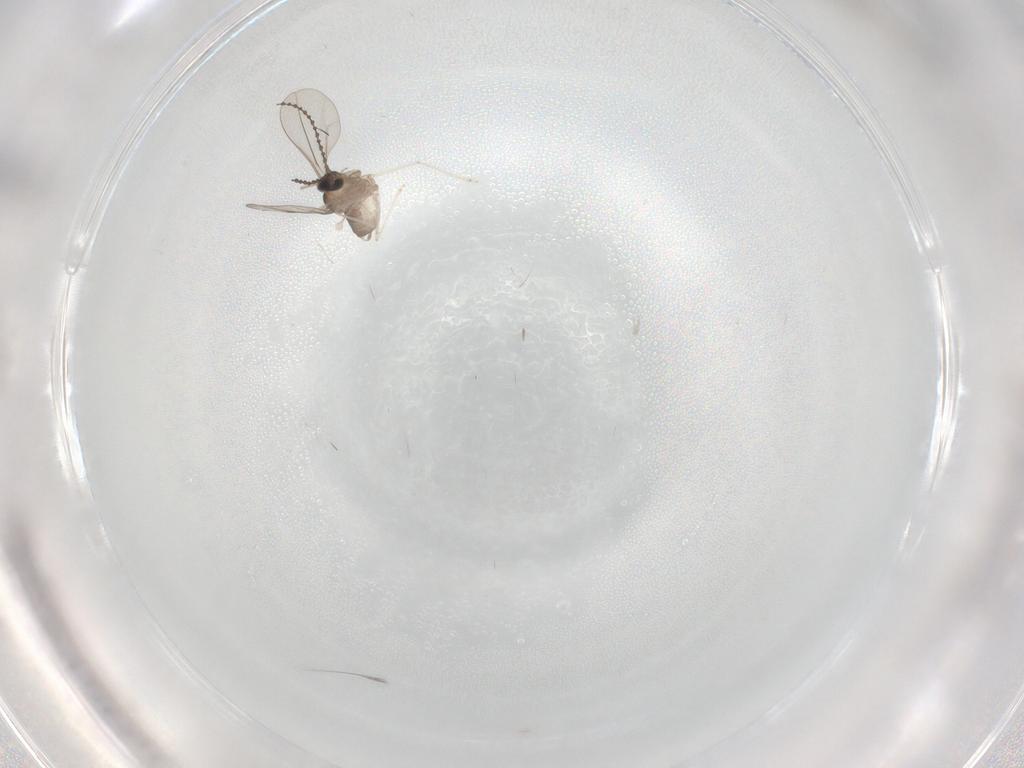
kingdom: Animalia
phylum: Arthropoda
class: Insecta
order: Diptera
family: Cecidomyiidae
